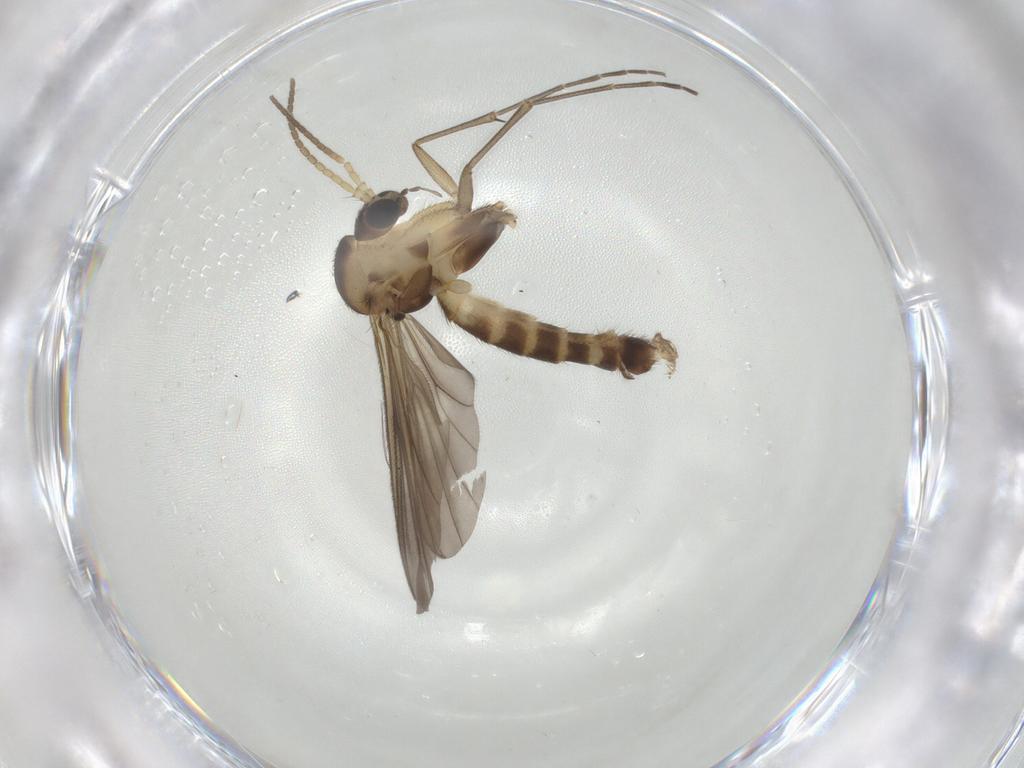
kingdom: Animalia
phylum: Arthropoda
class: Insecta
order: Diptera
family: Mycetophilidae
